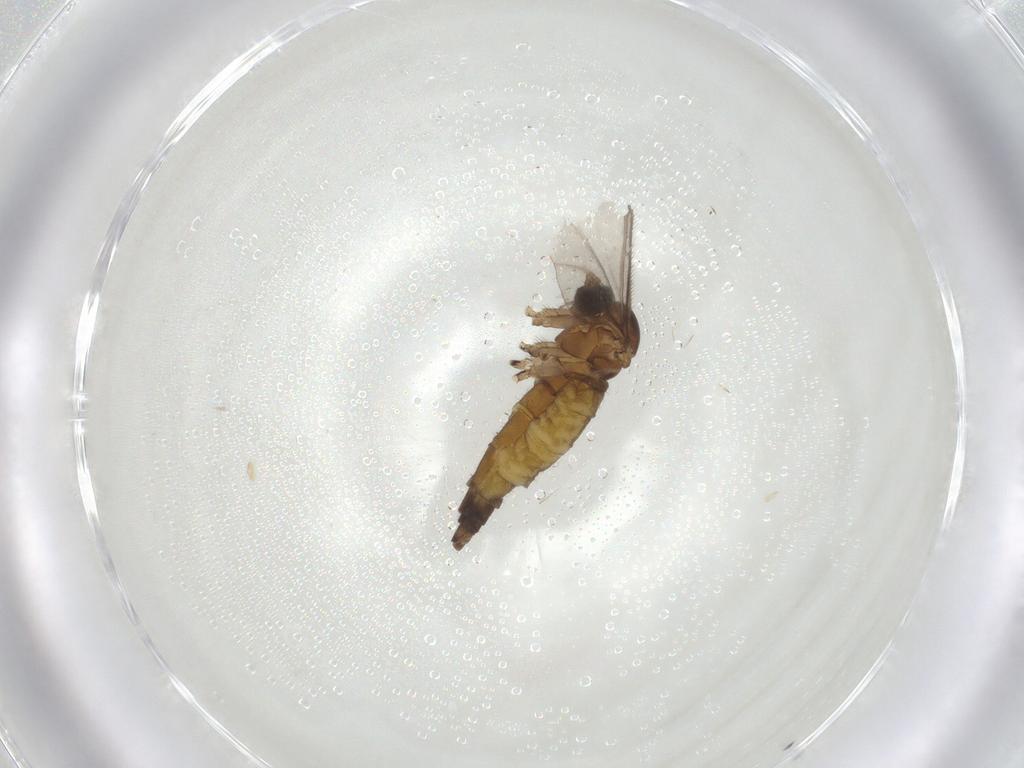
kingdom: Animalia
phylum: Arthropoda
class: Insecta
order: Diptera
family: Sciaridae
